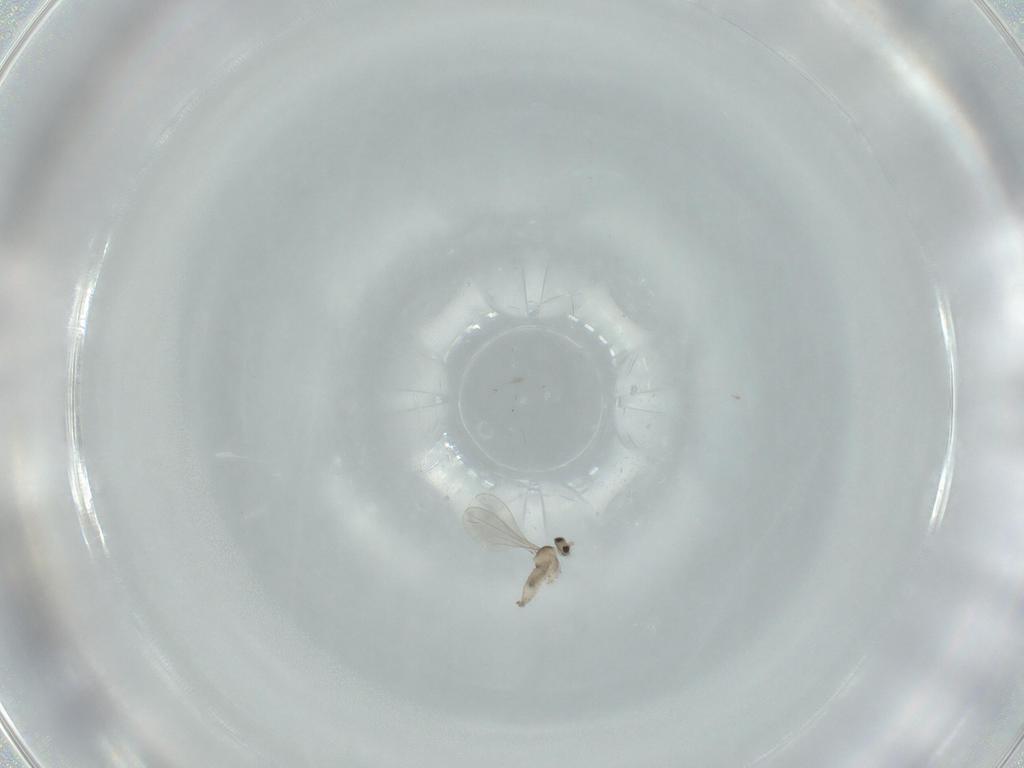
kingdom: Animalia
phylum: Arthropoda
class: Insecta
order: Diptera
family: Cecidomyiidae
